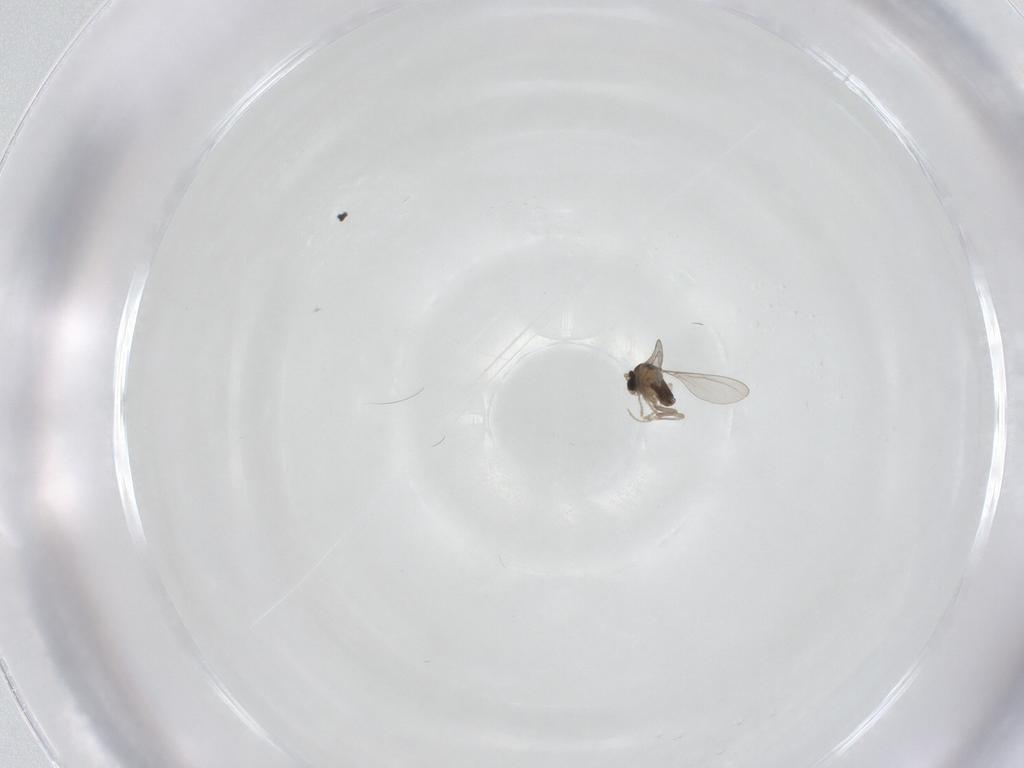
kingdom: Animalia
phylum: Arthropoda
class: Insecta
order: Diptera
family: Cecidomyiidae
